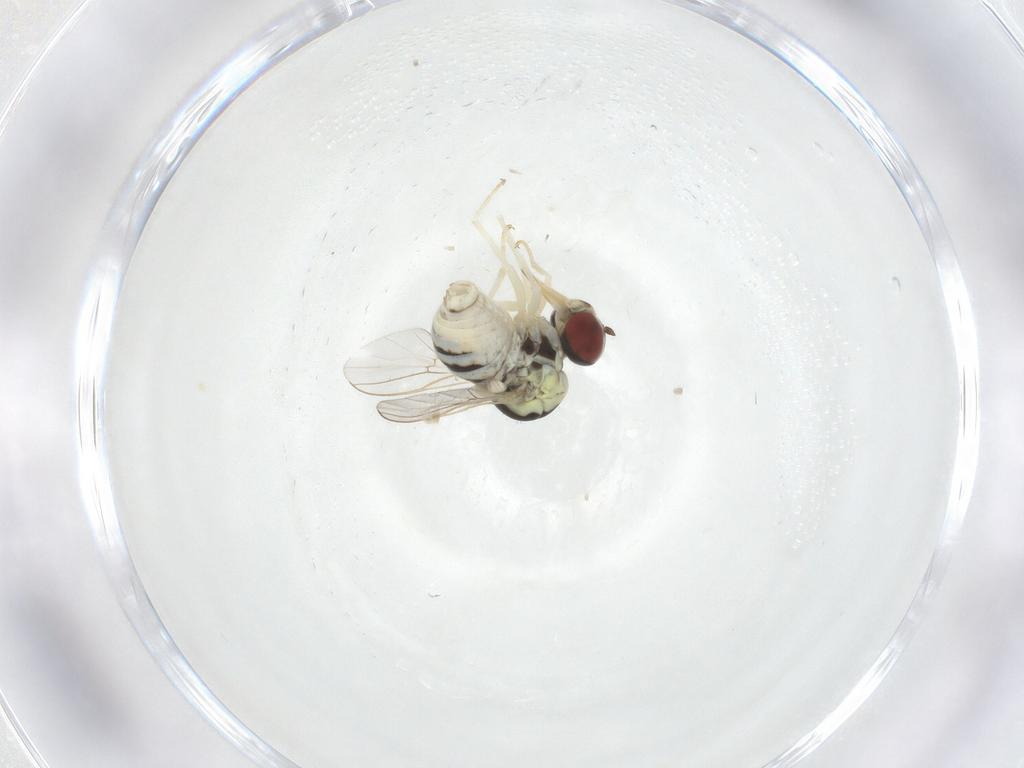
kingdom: Animalia
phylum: Arthropoda
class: Insecta
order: Diptera
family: Bombyliidae
